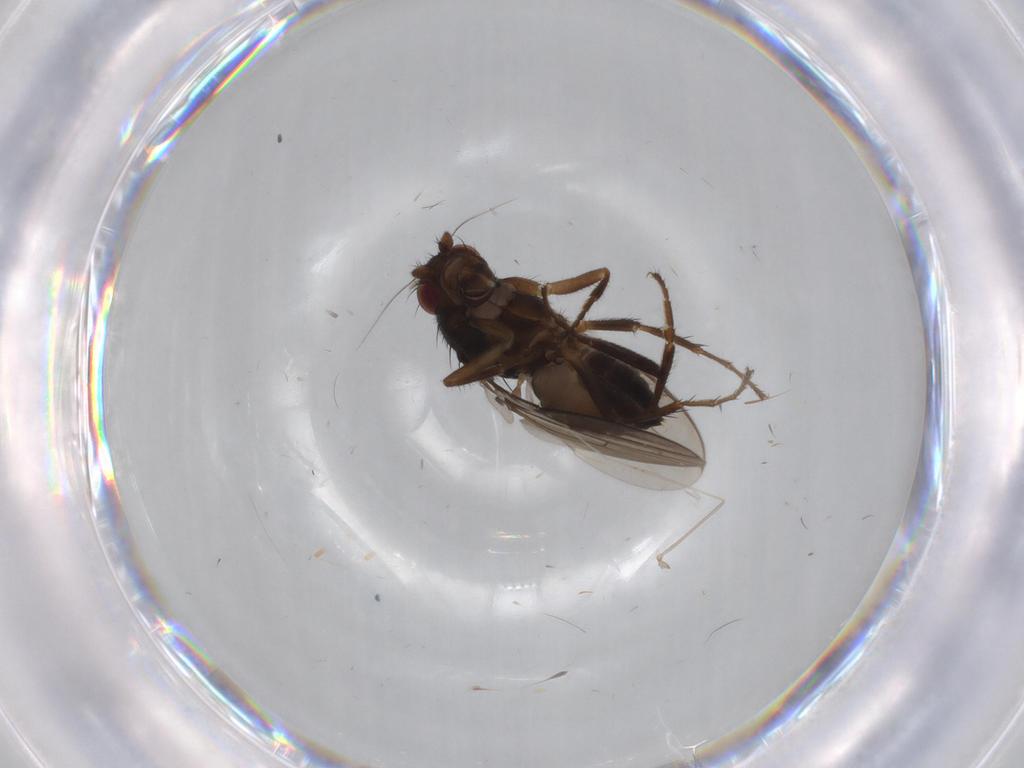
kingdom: Animalia
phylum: Arthropoda
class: Insecta
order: Diptera
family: Sphaeroceridae
